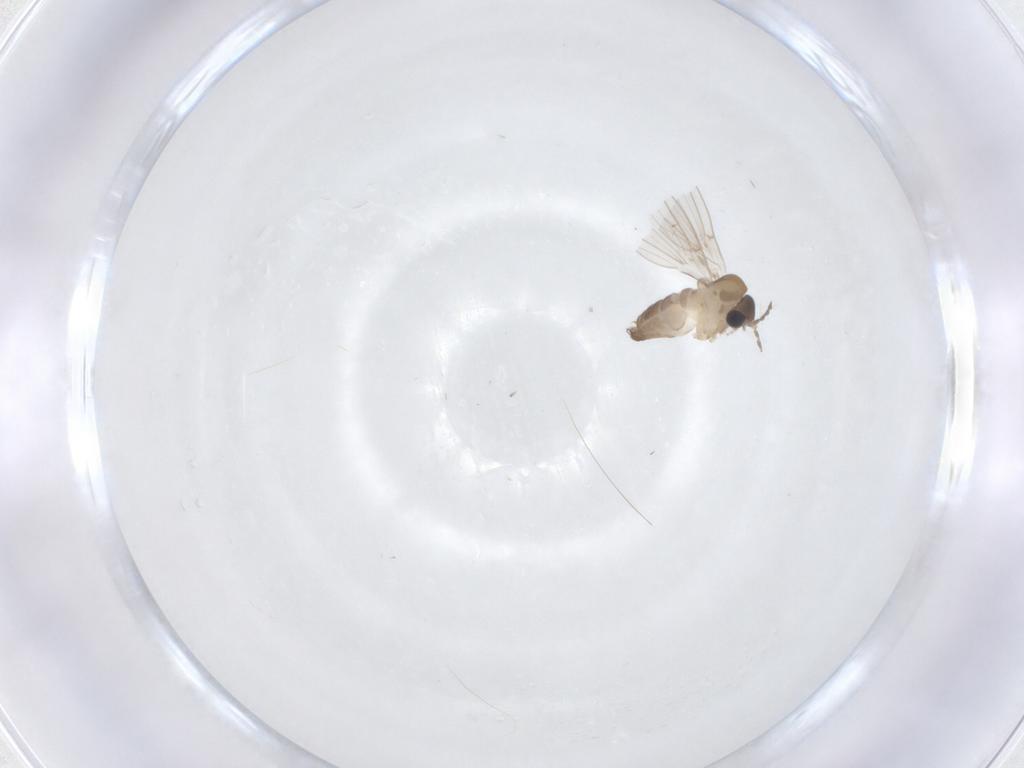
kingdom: Animalia
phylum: Arthropoda
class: Insecta
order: Diptera
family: Psychodidae
